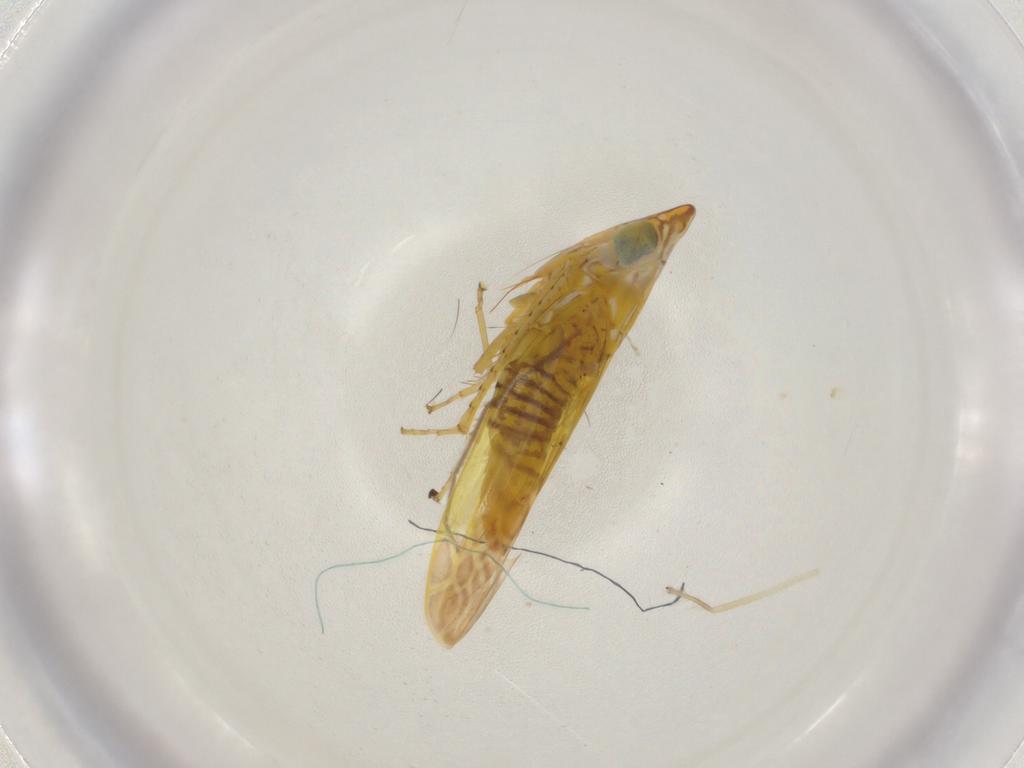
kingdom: Animalia
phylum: Arthropoda
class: Insecta
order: Hemiptera
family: Cicadellidae
